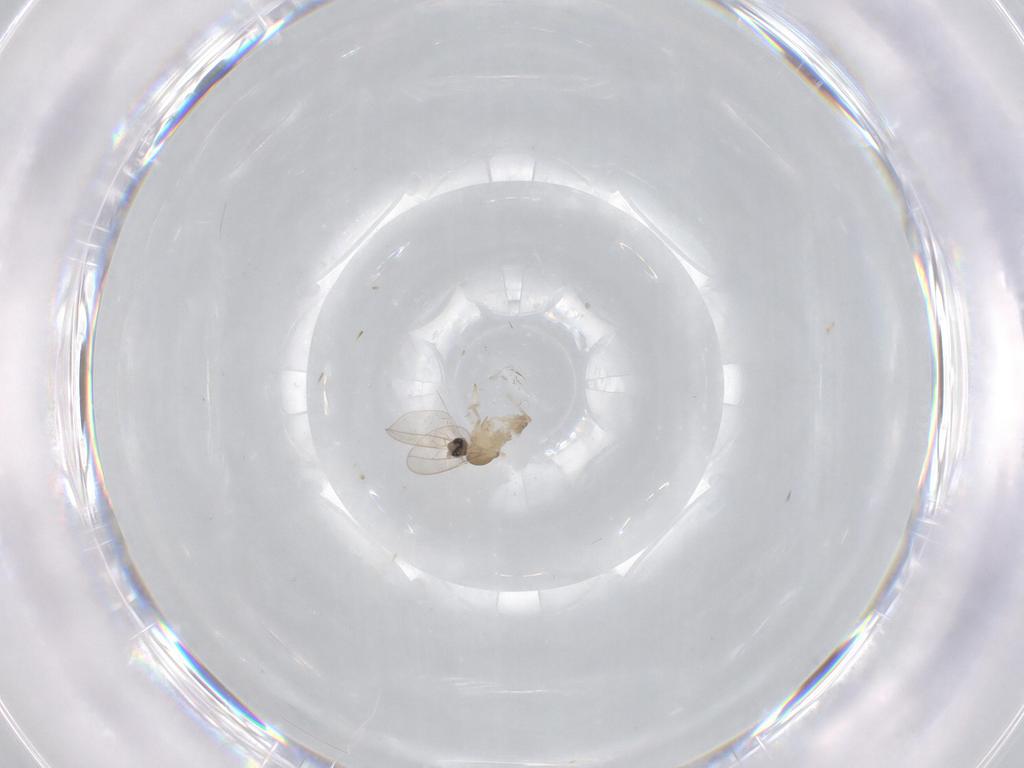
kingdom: Animalia
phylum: Arthropoda
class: Insecta
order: Diptera
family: Cecidomyiidae
